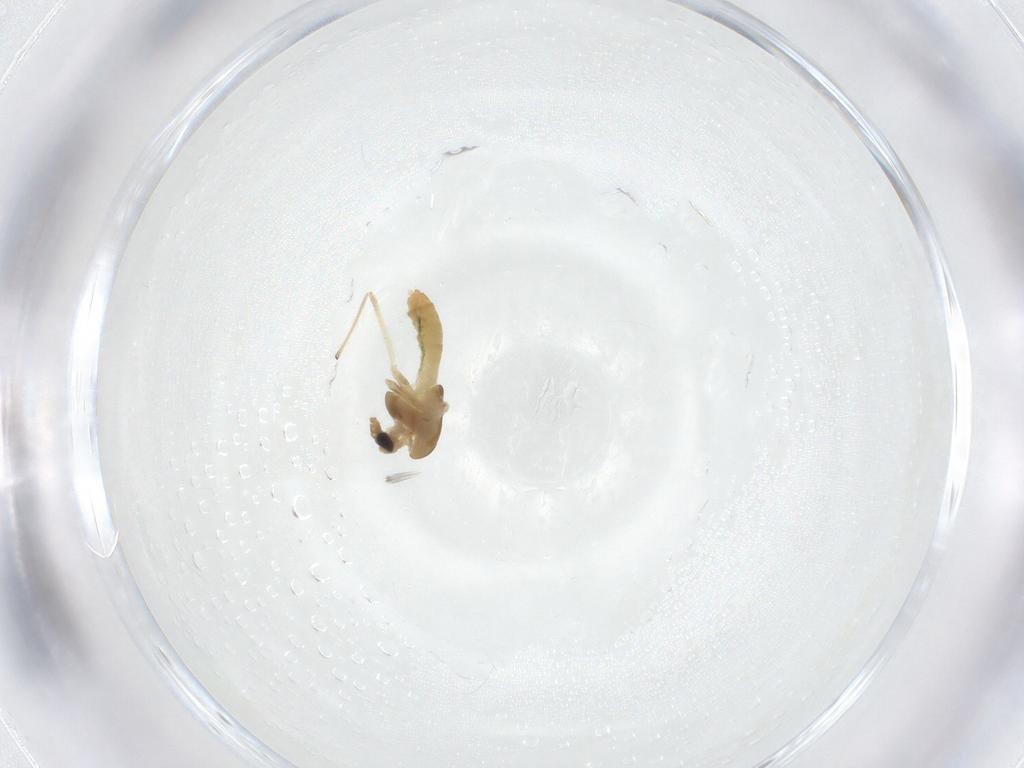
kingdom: Animalia
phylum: Arthropoda
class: Insecta
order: Diptera
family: Chironomidae
